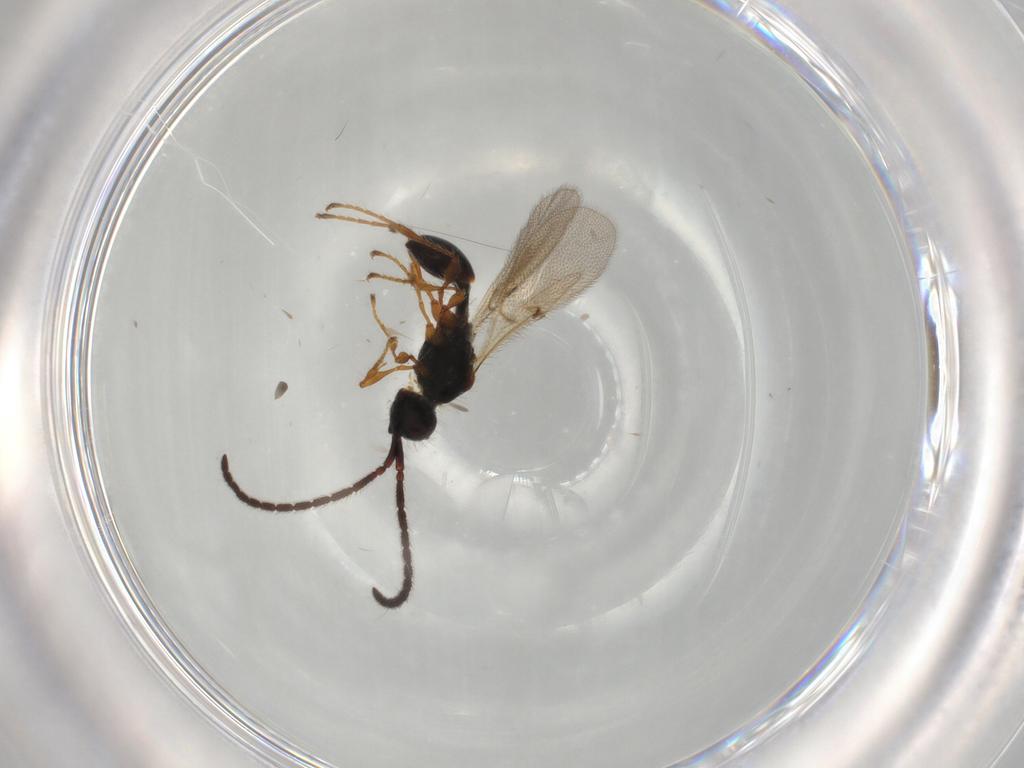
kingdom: Animalia
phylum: Arthropoda
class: Insecta
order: Hymenoptera
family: Diapriidae
